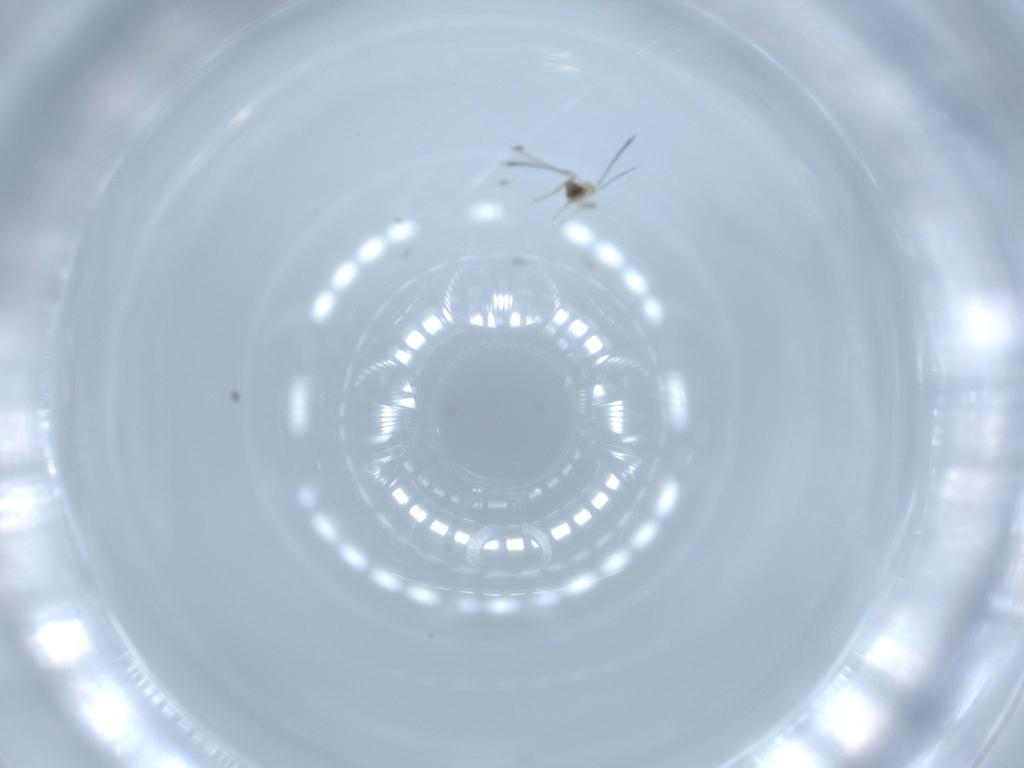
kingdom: Animalia
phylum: Arthropoda
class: Insecta
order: Hymenoptera
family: Mymaridae
